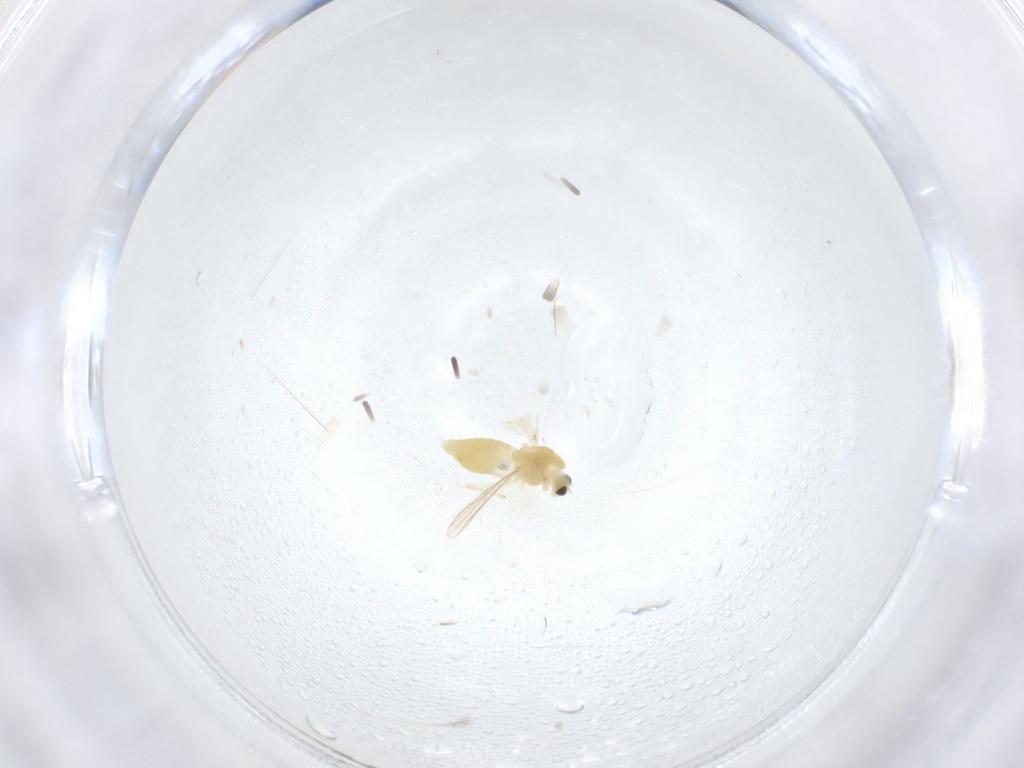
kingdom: Animalia
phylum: Arthropoda
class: Insecta
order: Diptera
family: Chironomidae
